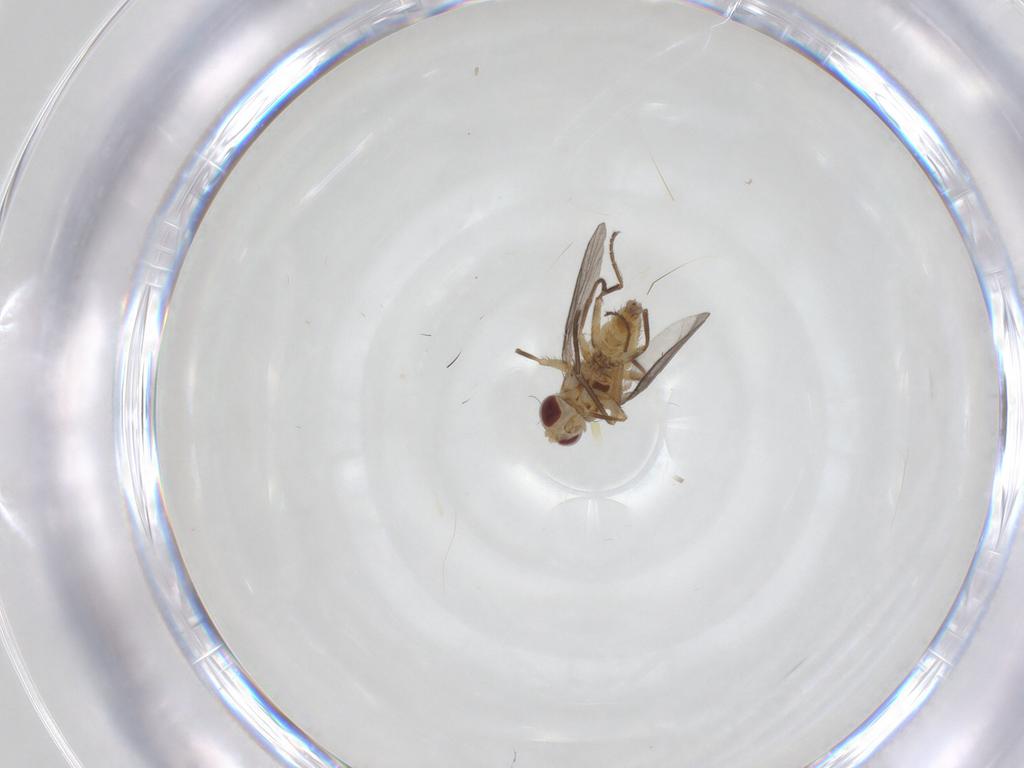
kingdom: Animalia
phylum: Arthropoda
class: Insecta
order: Diptera
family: Agromyzidae
